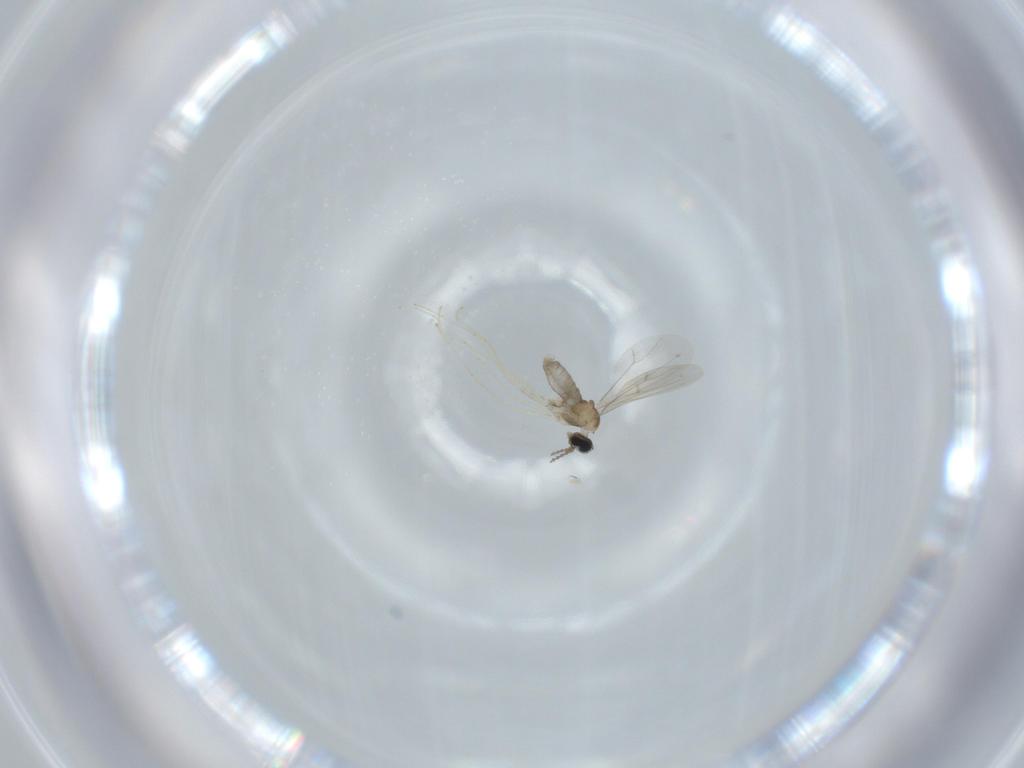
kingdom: Animalia
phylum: Arthropoda
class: Insecta
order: Diptera
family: Cecidomyiidae
